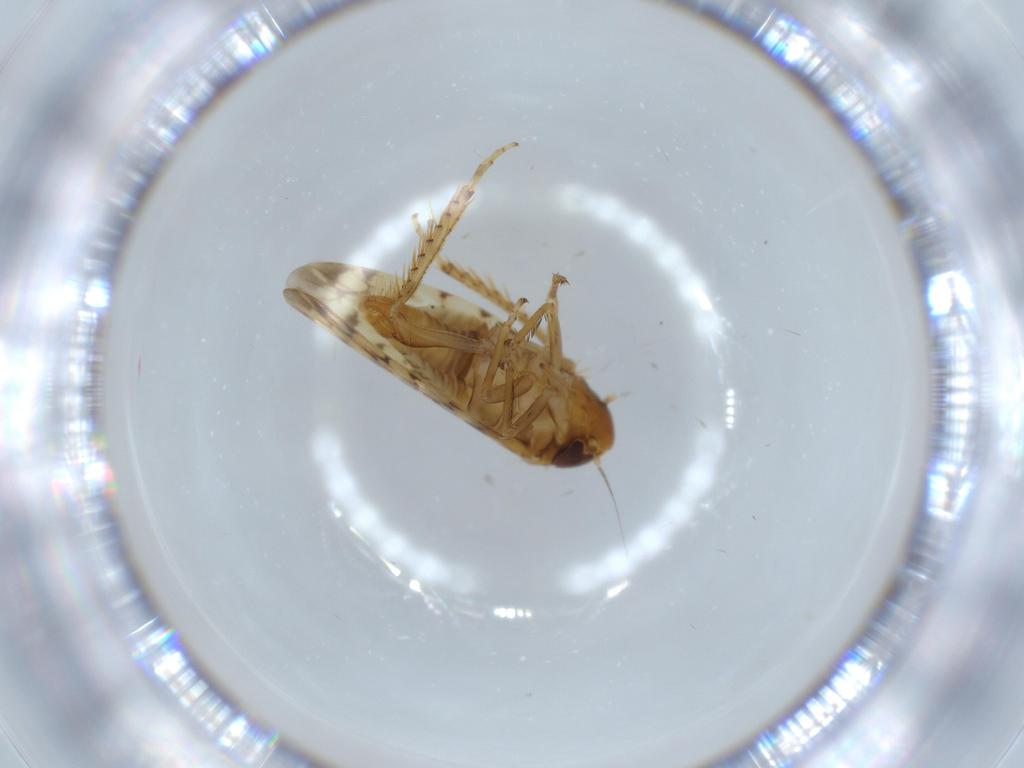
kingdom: Animalia
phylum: Arthropoda
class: Insecta
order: Hemiptera
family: Cicadellidae
